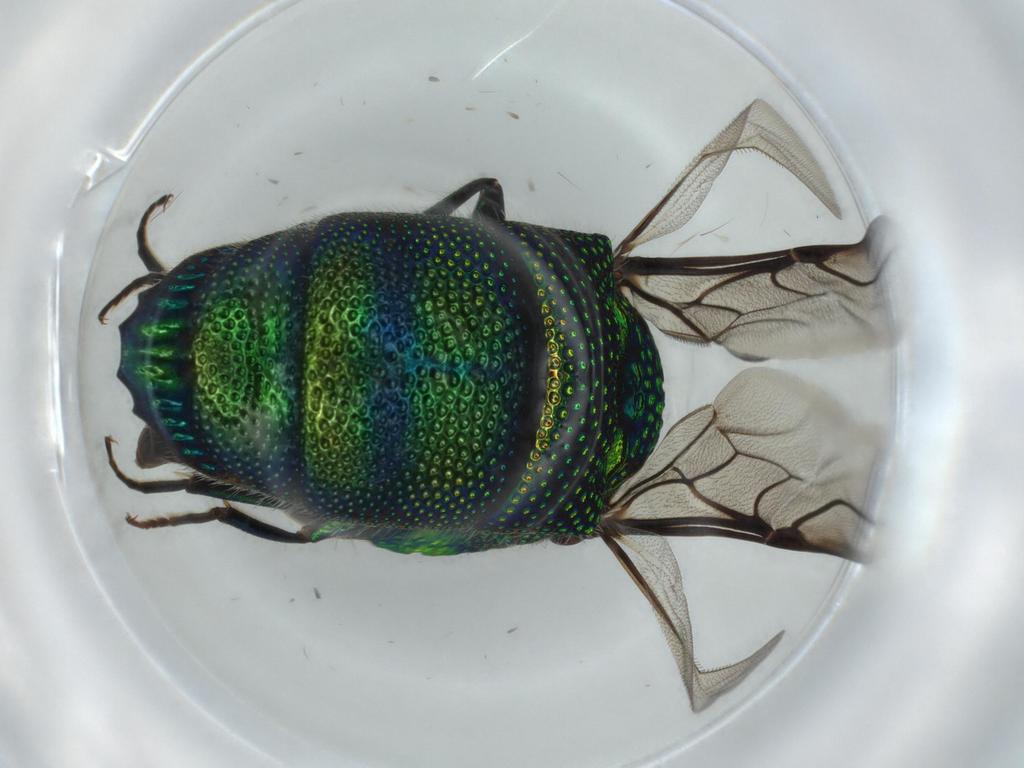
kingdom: Animalia
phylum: Arthropoda
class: Insecta
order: Hymenoptera
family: Chrysididae
